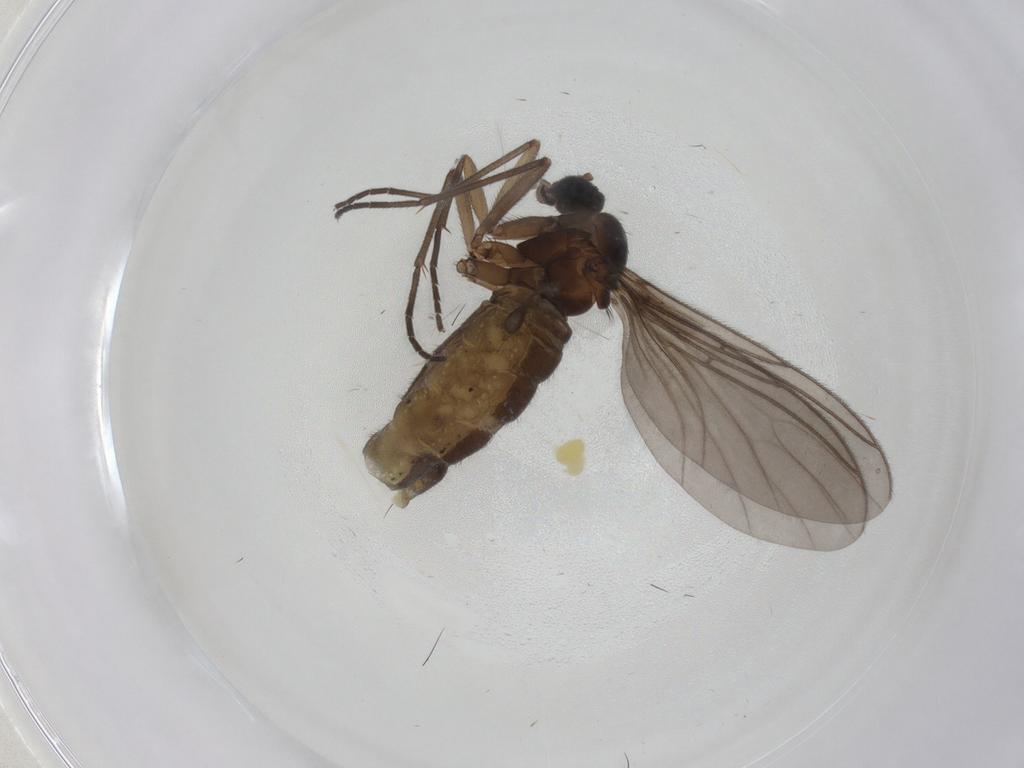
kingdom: Animalia
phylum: Arthropoda
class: Insecta
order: Diptera
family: Sciaridae
